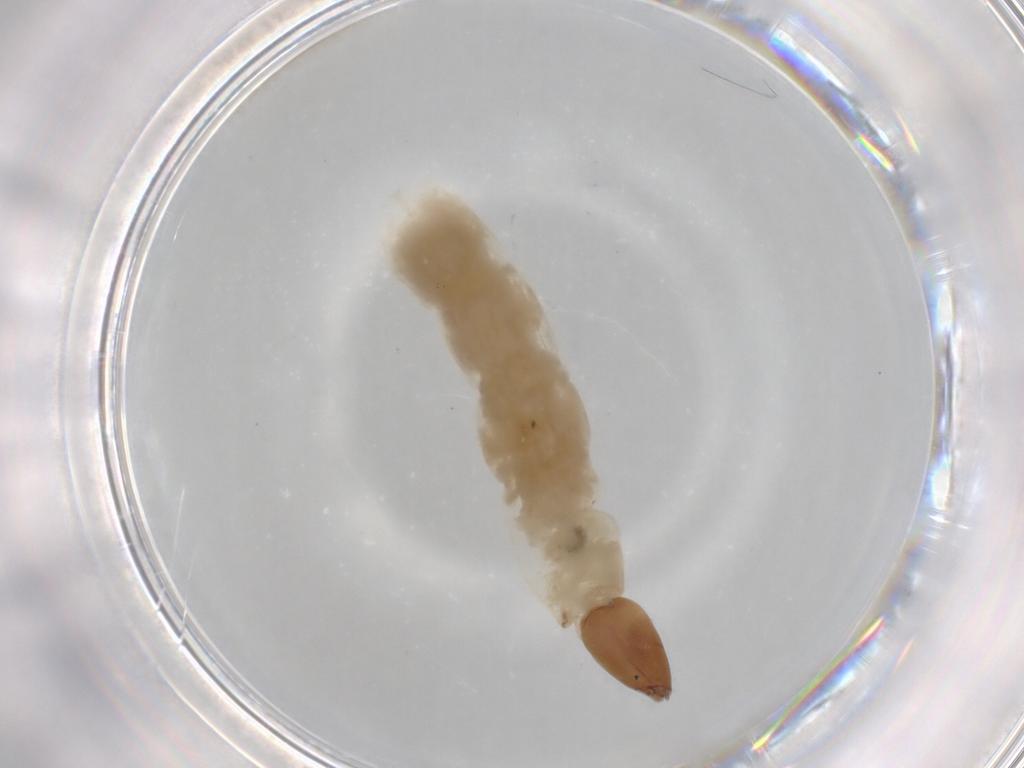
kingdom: Animalia
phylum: Arthropoda
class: Insecta
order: Diptera
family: Chironomidae
